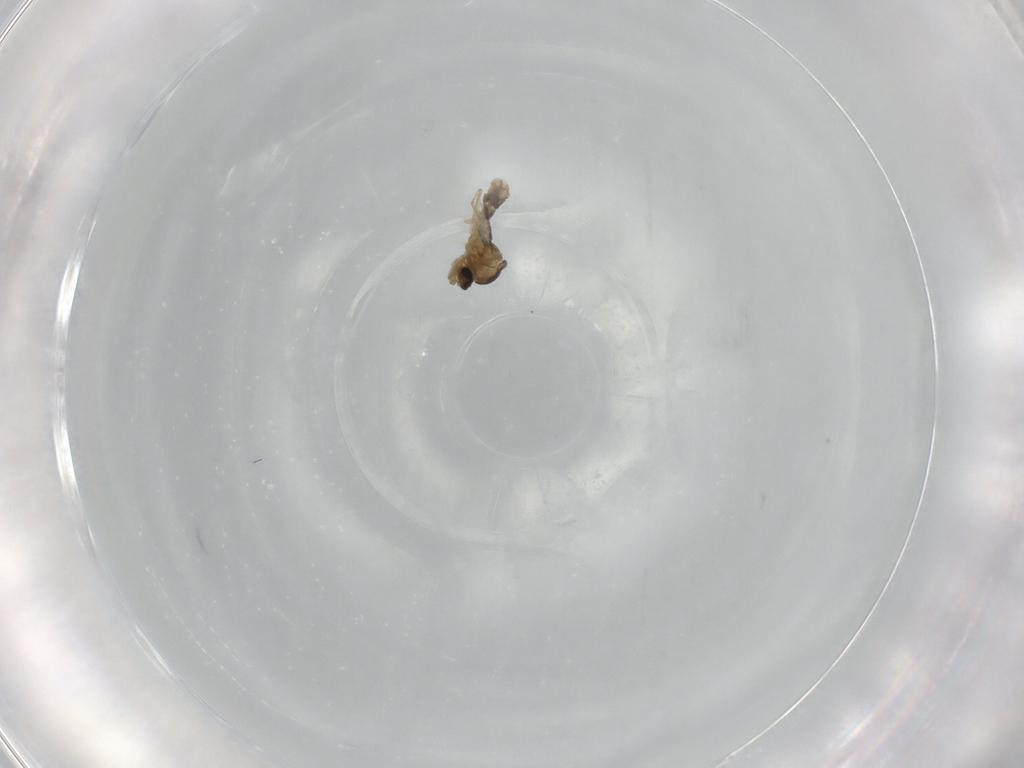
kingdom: Animalia
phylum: Arthropoda
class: Insecta
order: Diptera
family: Cecidomyiidae
